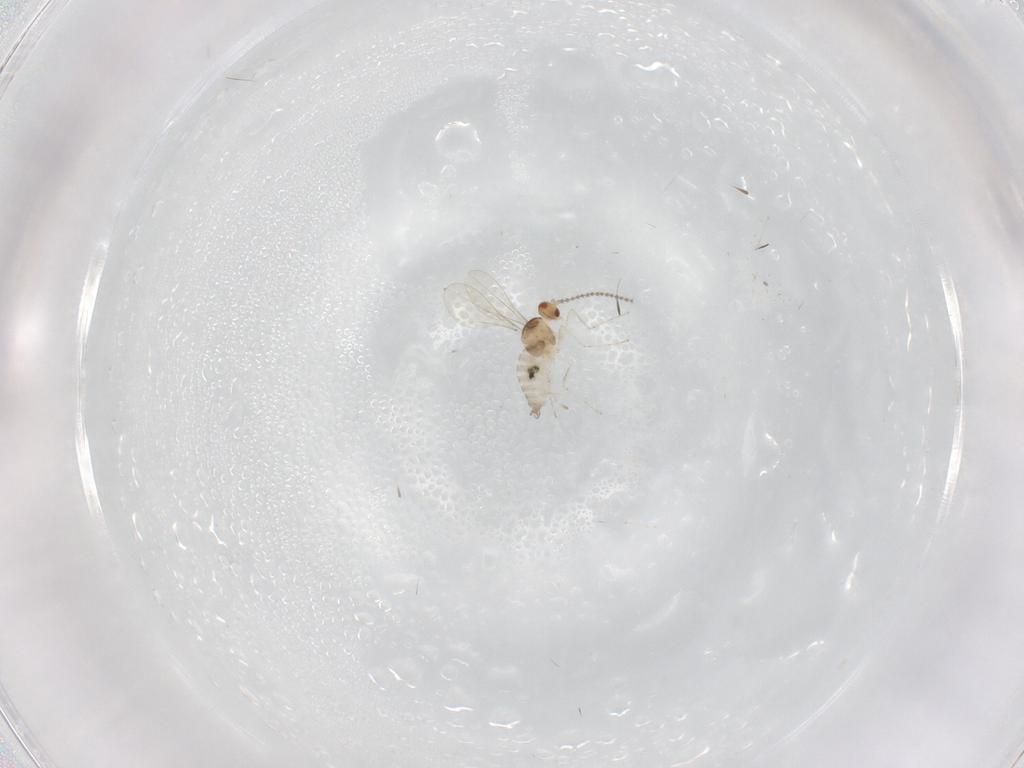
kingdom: Animalia
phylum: Arthropoda
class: Insecta
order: Diptera
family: Cecidomyiidae
